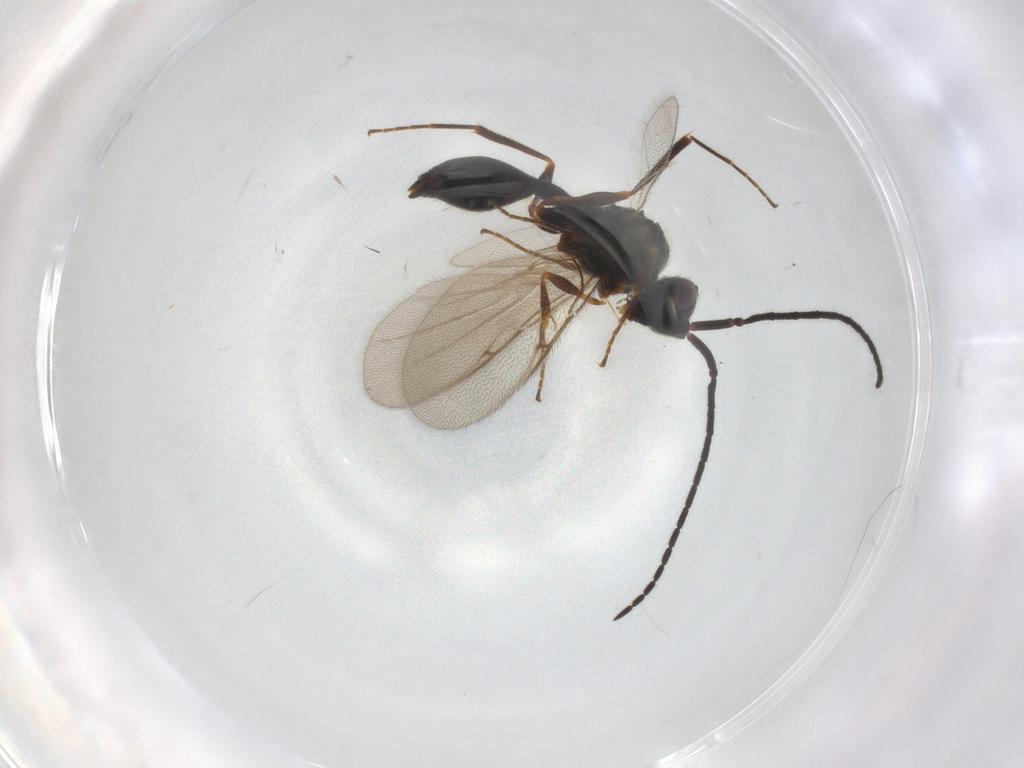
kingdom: Animalia
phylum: Arthropoda
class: Insecta
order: Hymenoptera
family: Diapriidae
